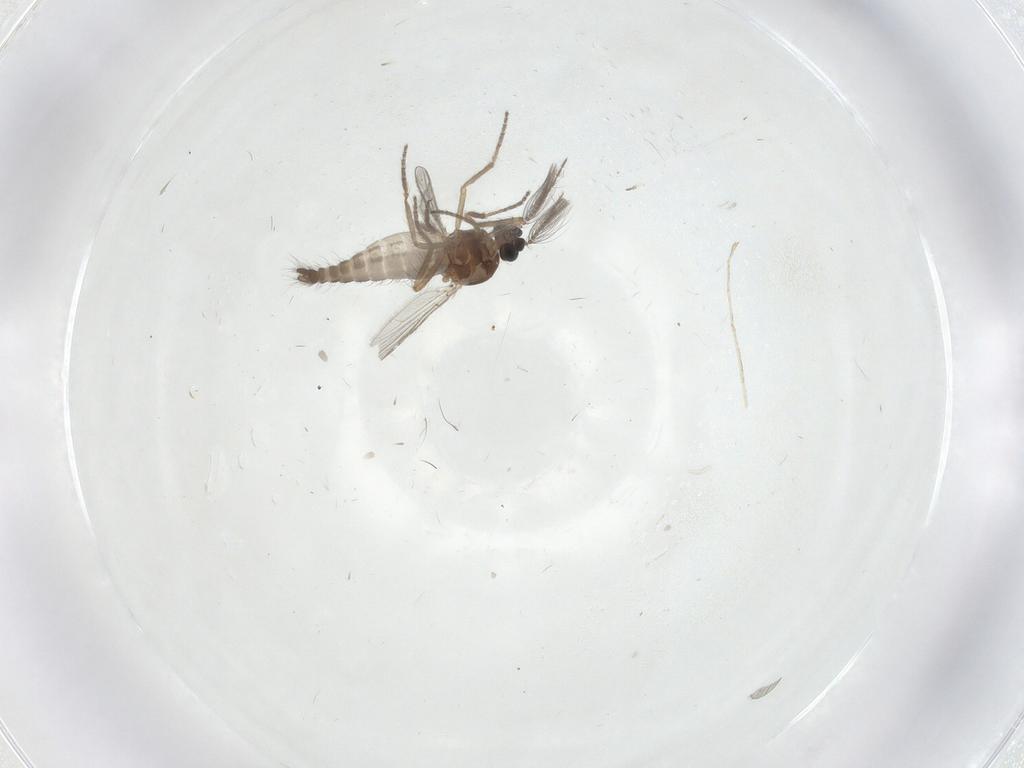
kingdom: Animalia
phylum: Arthropoda
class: Insecta
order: Diptera
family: Cecidomyiidae
